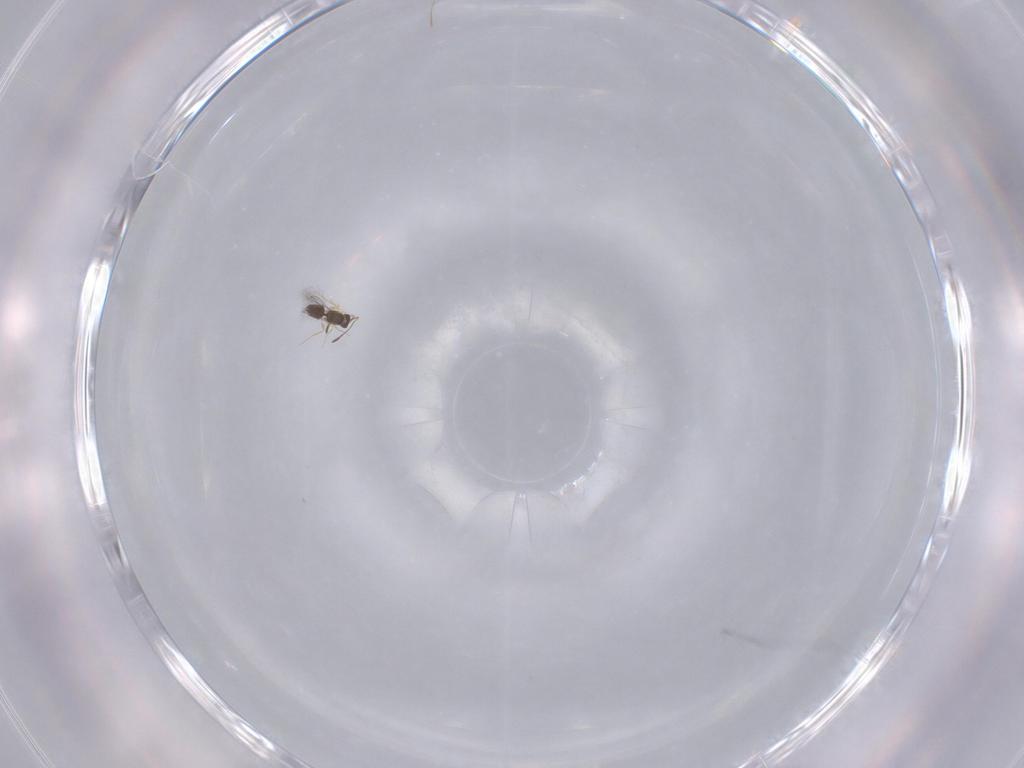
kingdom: Animalia
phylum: Arthropoda
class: Insecta
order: Hymenoptera
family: Mymaridae
